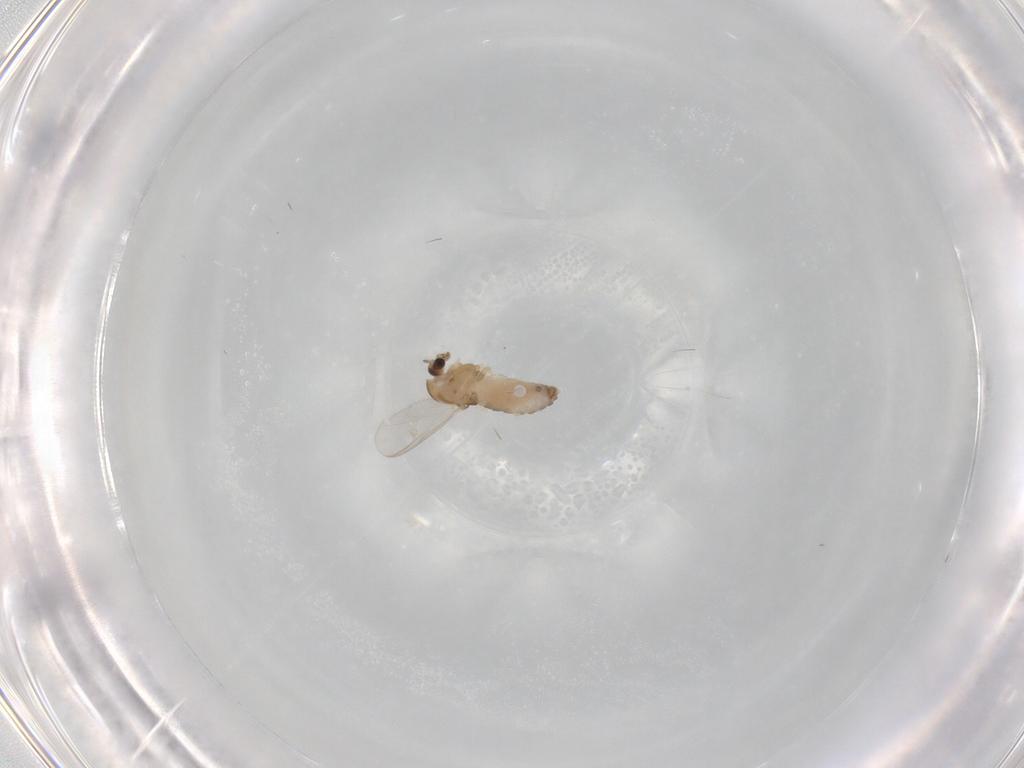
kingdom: Animalia
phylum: Arthropoda
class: Insecta
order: Diptera
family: Chironomidae
